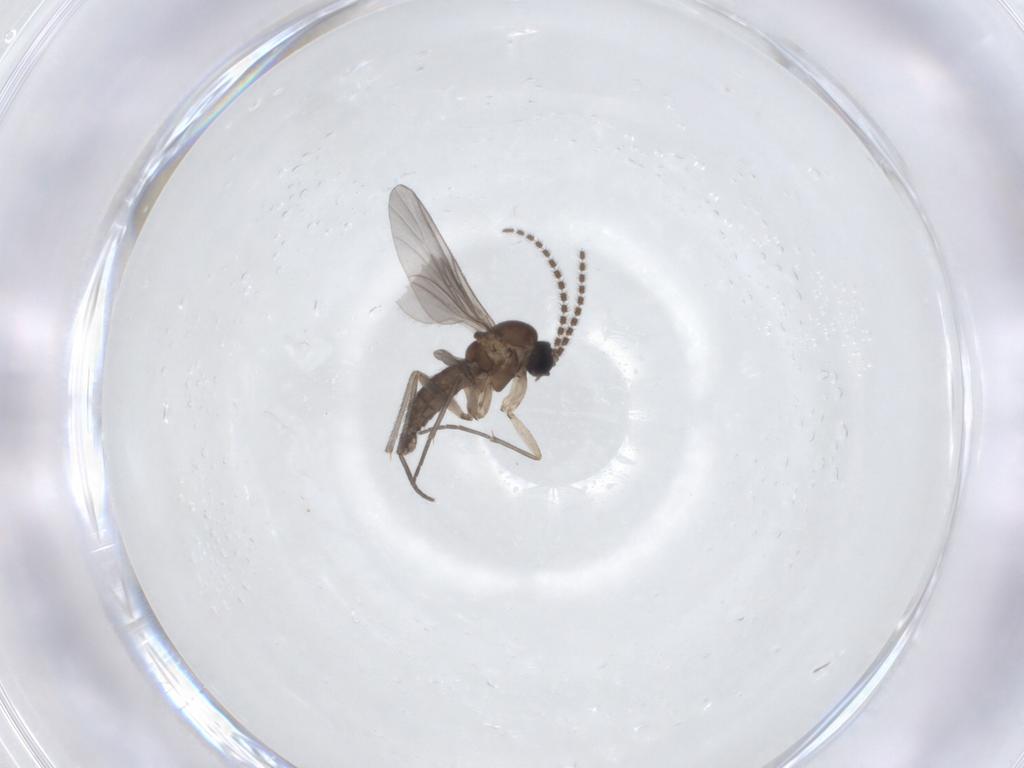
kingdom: Animalia
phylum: Arthropoda
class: Insecta
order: Diptera
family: Sciaridae
